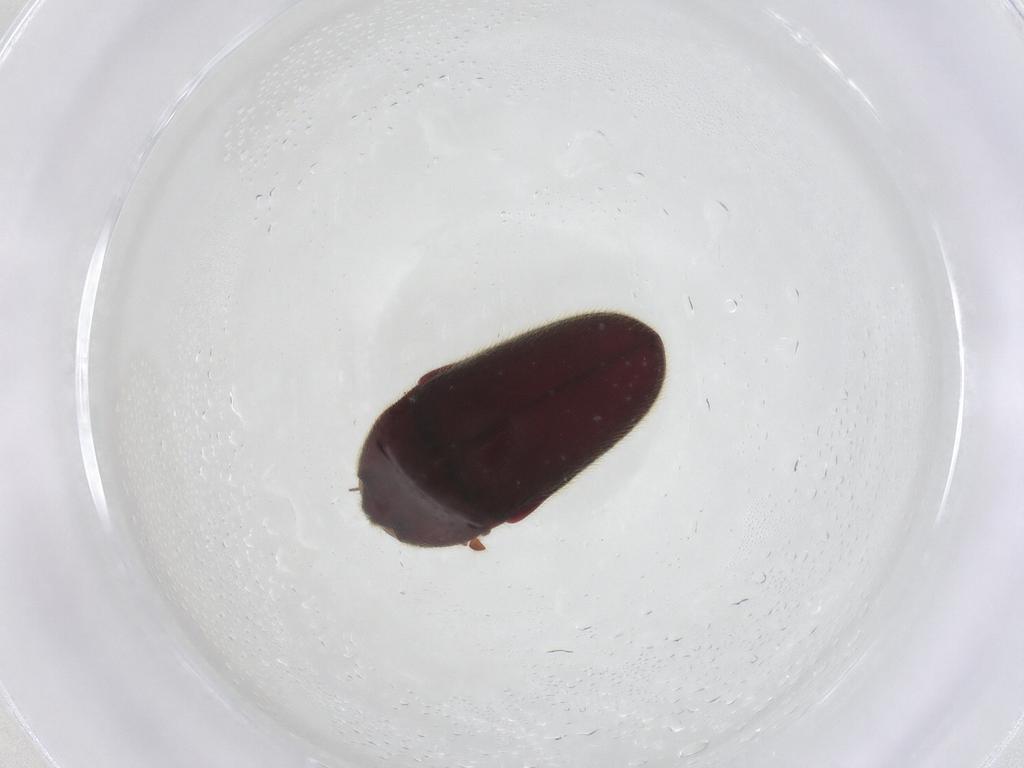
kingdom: Animalia
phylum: Arthropoda
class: Insecta
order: Coleoptera
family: Throscidae
